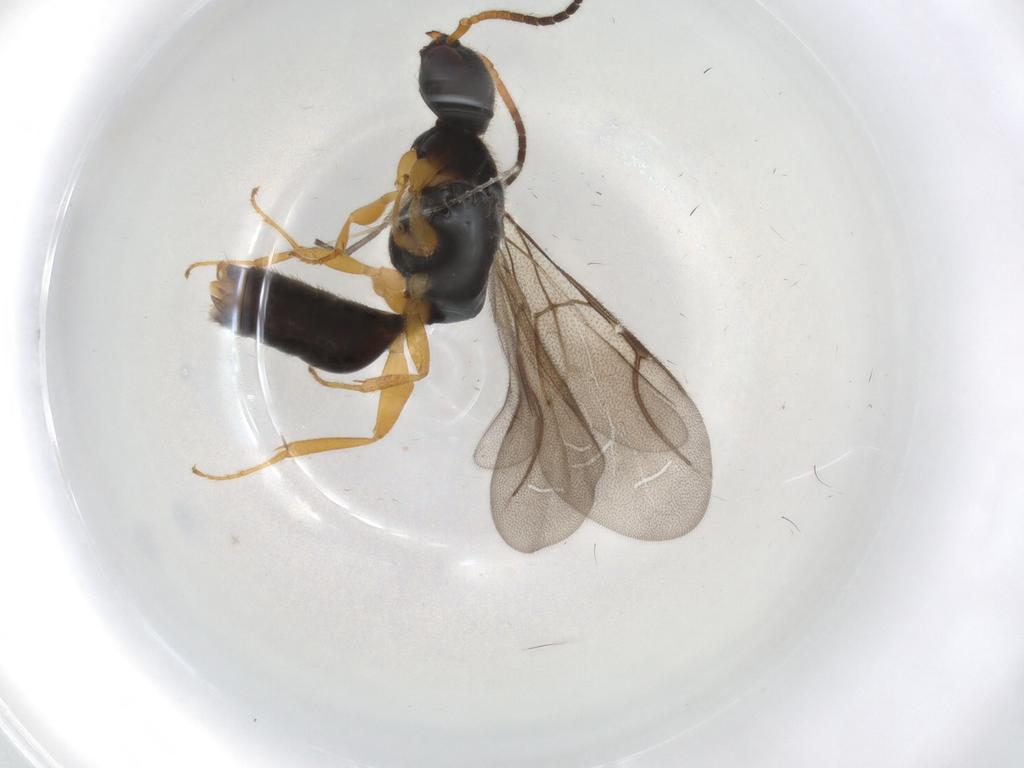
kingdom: Animalia
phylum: Arthropoda
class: Insecta
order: Hymenoptera
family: Bethylidae
